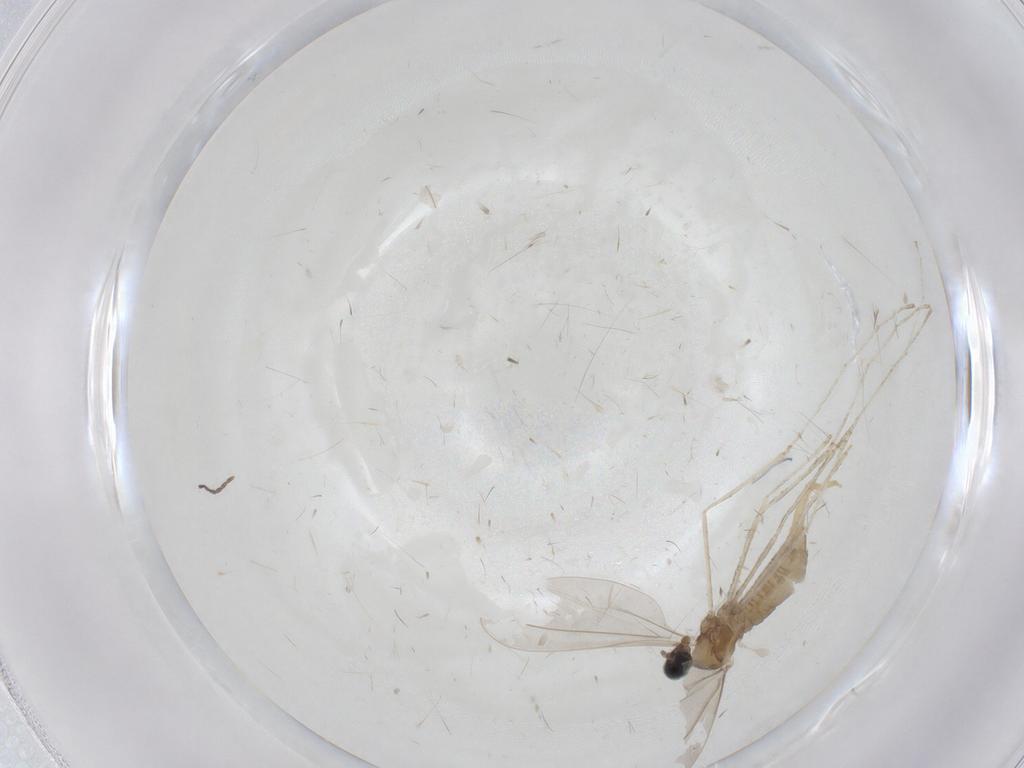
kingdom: Animalia
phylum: Arthropoda
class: Insecta
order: Diptera
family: Cecidomyiidae
